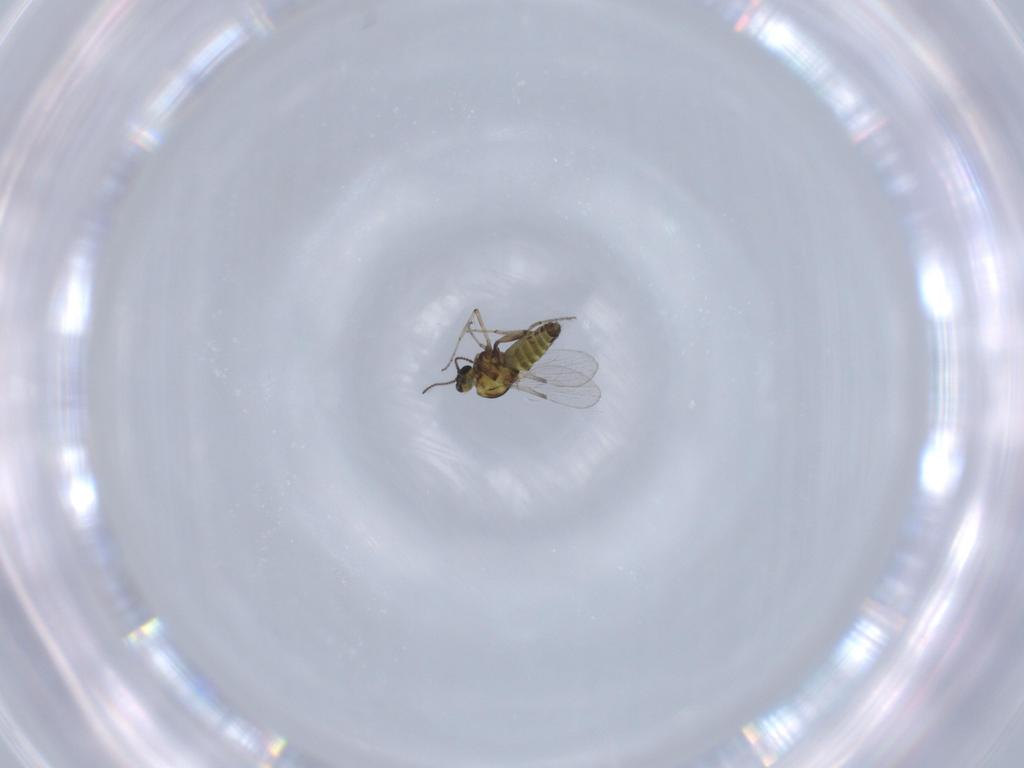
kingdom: Animalia
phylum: Arthropoda
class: Insecta
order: Diptera
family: Ceratopogonidae
